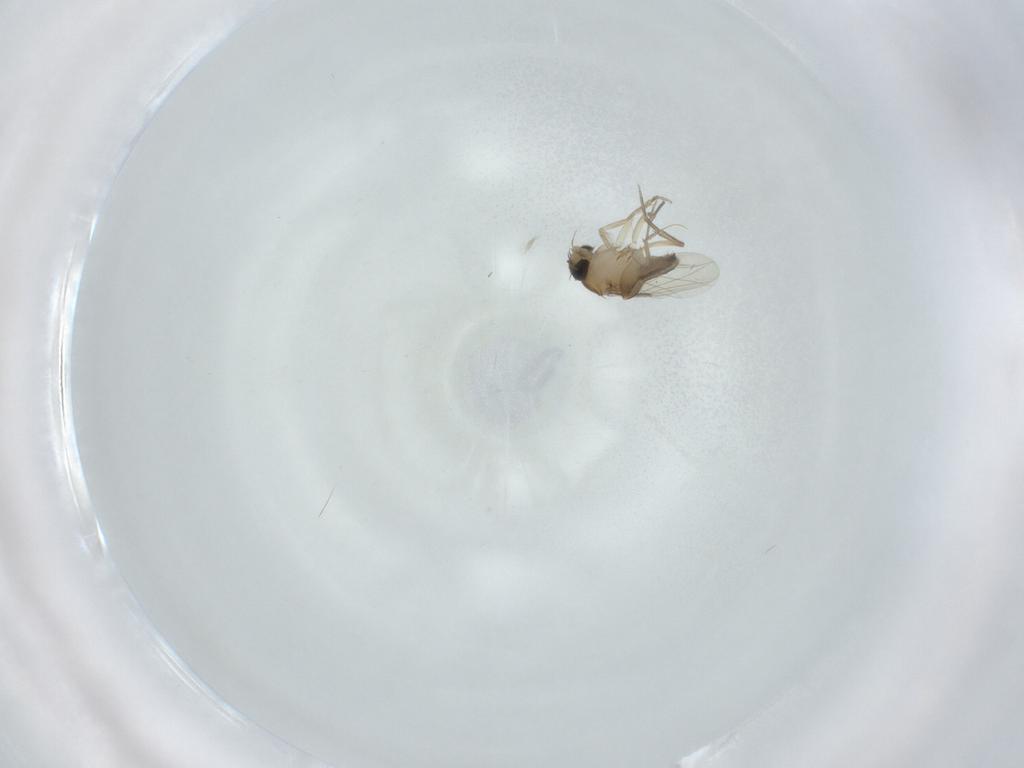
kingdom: Animalia
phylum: Arthropoda
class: Insecta
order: Diptera
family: Phoridae
